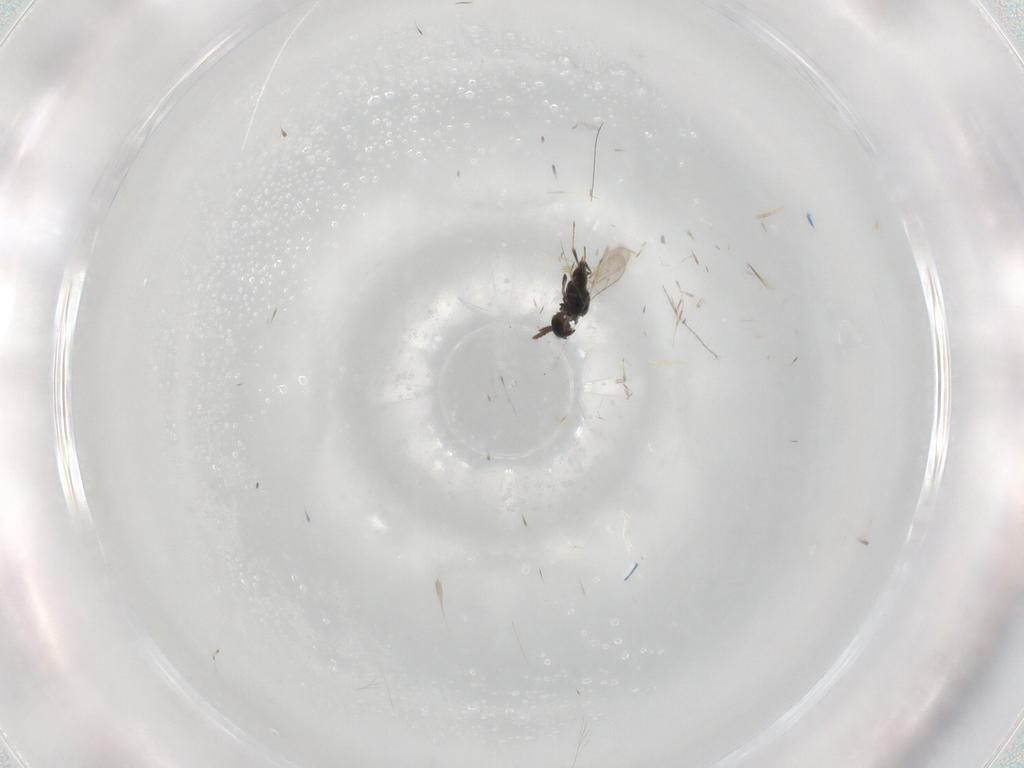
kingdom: Animalia
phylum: Arthropoda
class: Insecta
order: Hymenoptera
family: Scelionidae
